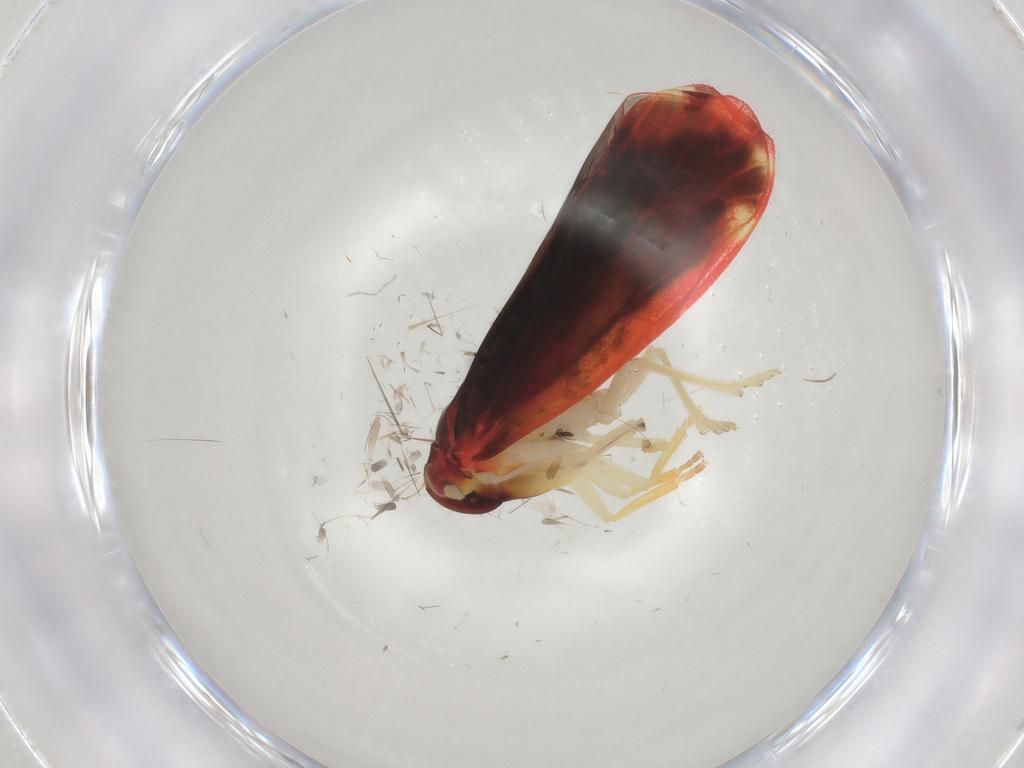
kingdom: Animalia
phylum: Arthropoda
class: Insecta
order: Hemiptera
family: Derbidae
